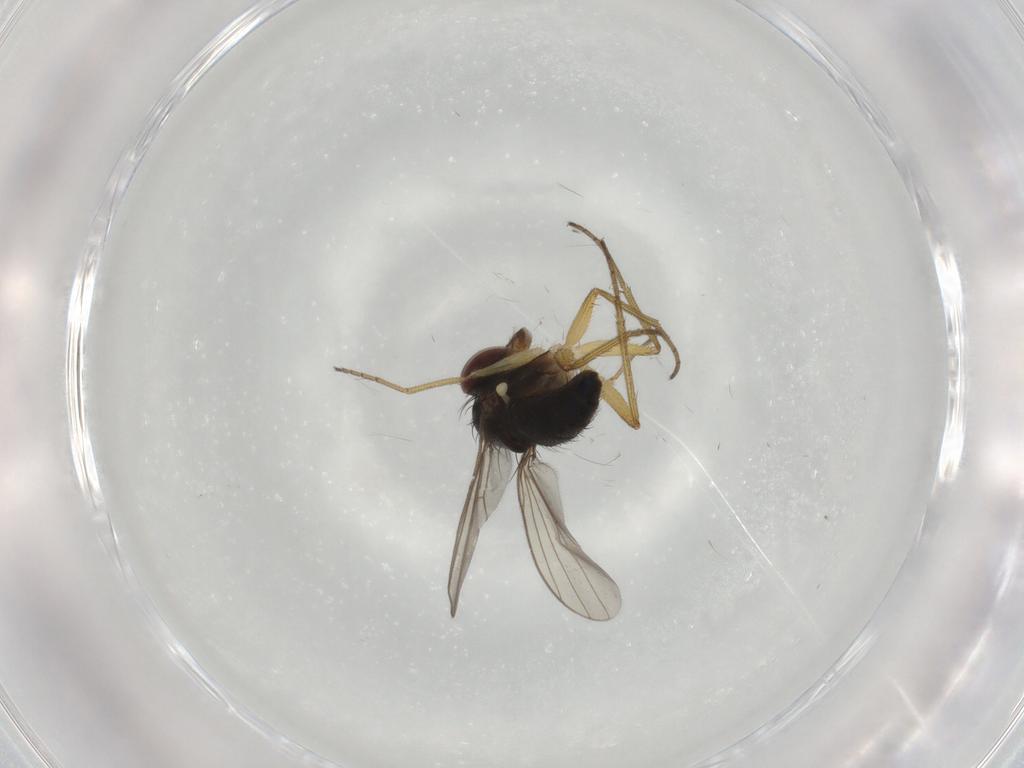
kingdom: Animalia
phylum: Arthropoda
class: Insecta
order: Diptera
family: Dolichopodidae
